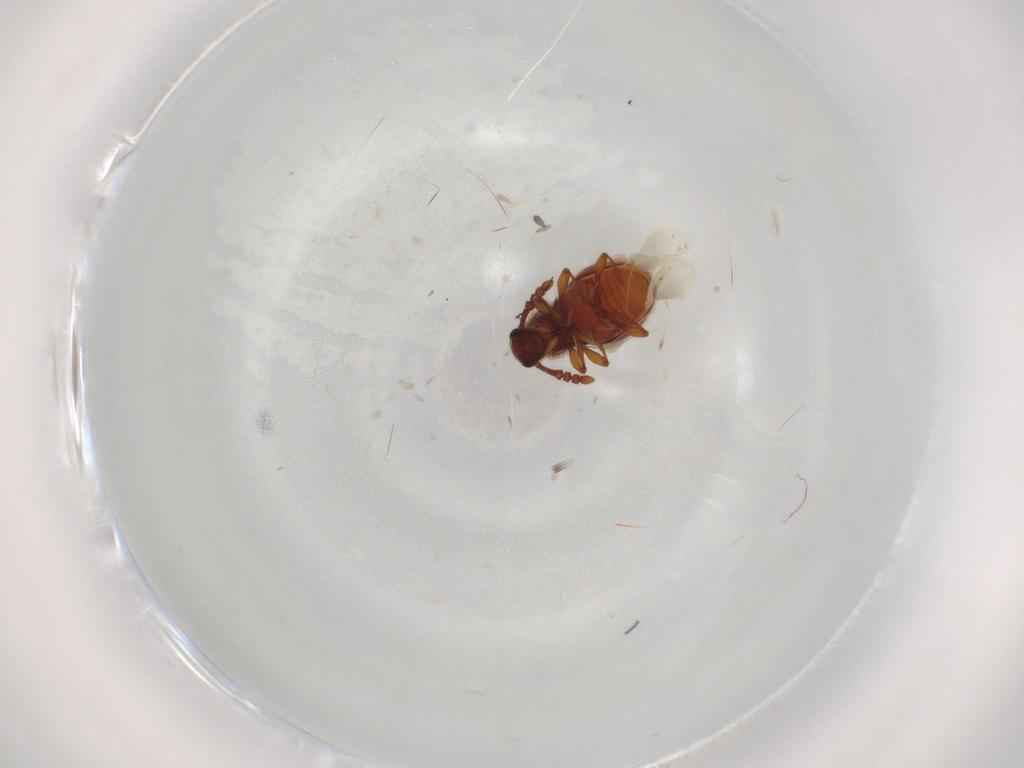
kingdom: Animalia
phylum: Arthropoda
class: Insecta
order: Coleoptera
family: Staphylinidae
